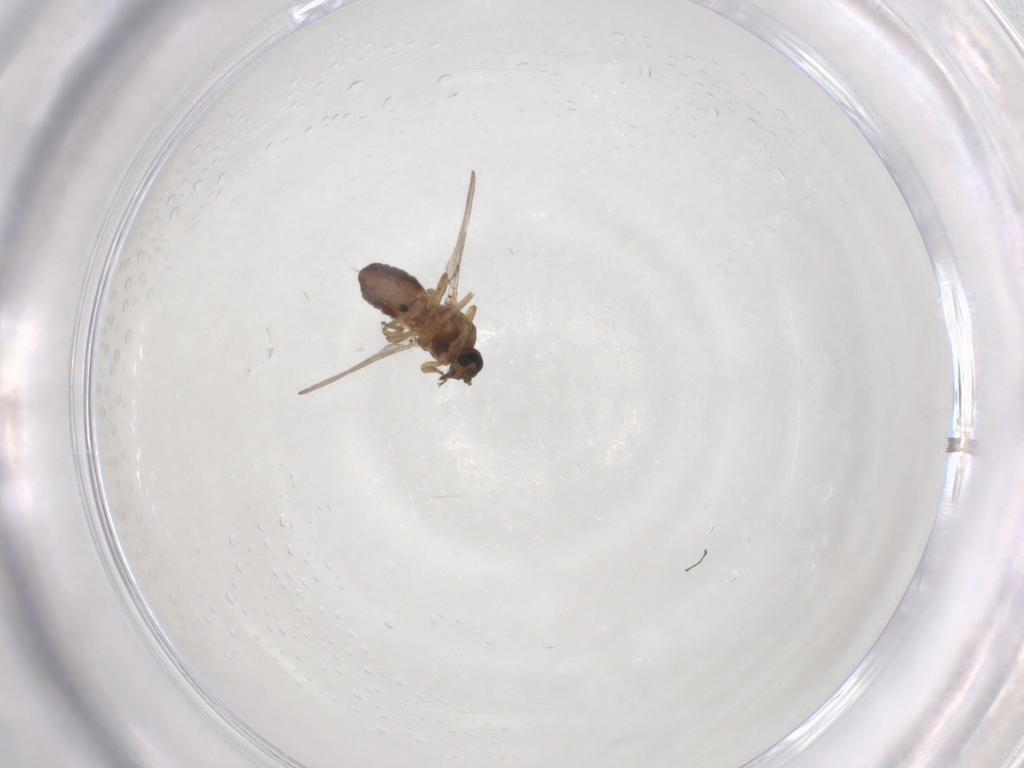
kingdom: Animalia
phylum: Arthropoda
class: Insecta
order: Diptera
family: Ceratopogonidae
